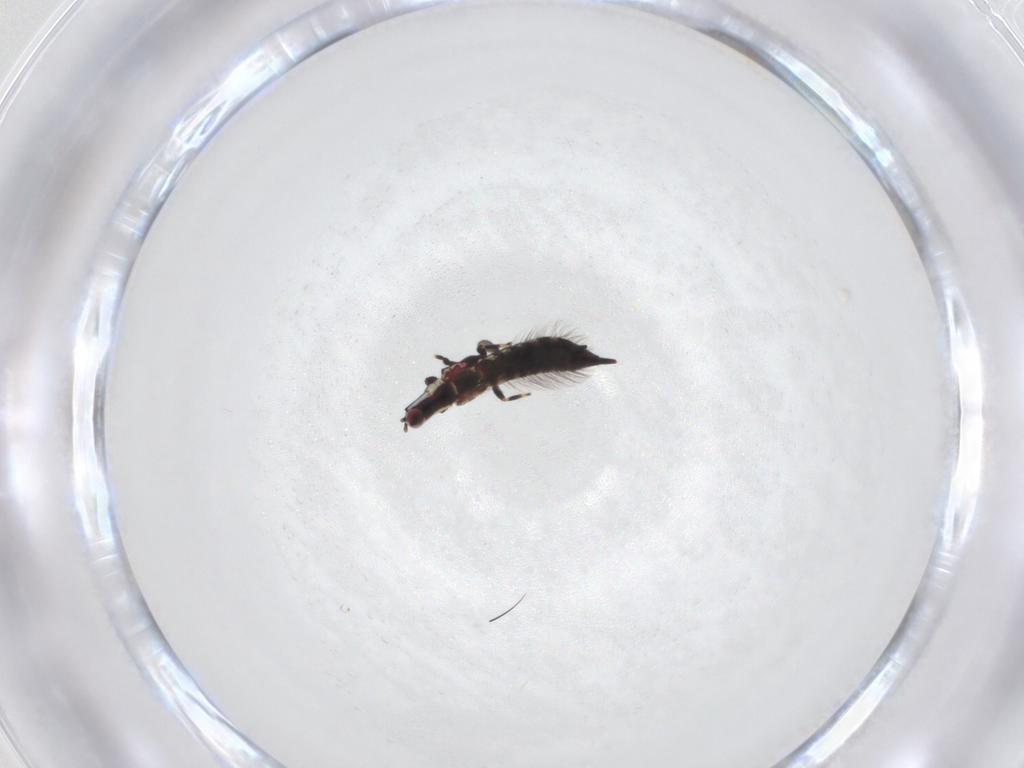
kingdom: Animalia
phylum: Arthropoda
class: Insecta
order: Thysanoptera
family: Phlaeothripidae
